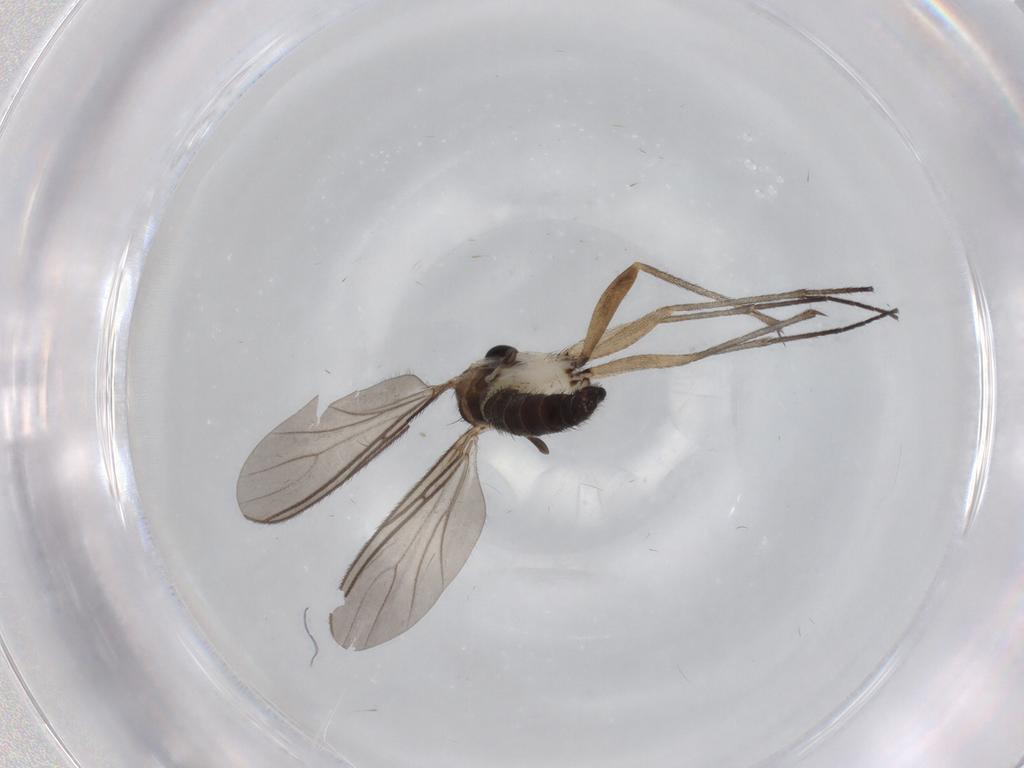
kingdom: Animalia
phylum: Arthropoda
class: Insecta
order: Diptera
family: Sciaridae
